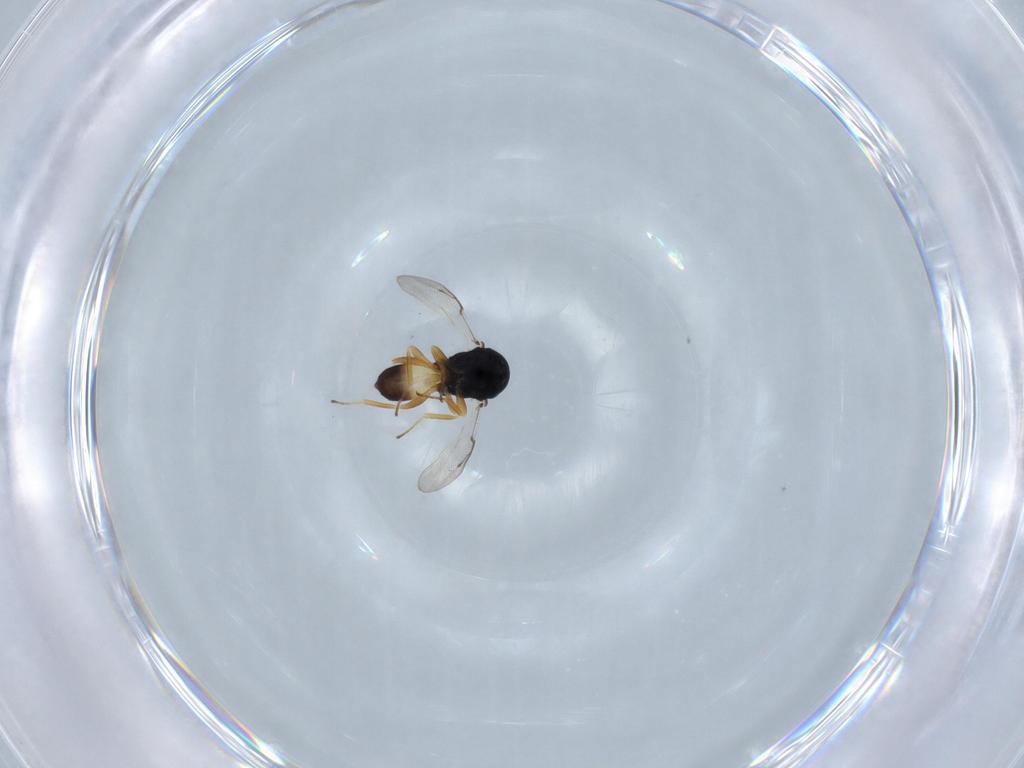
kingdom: Animalia
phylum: Arthropoda
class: Insecta
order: Hymenoptera
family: Pteromalidae
